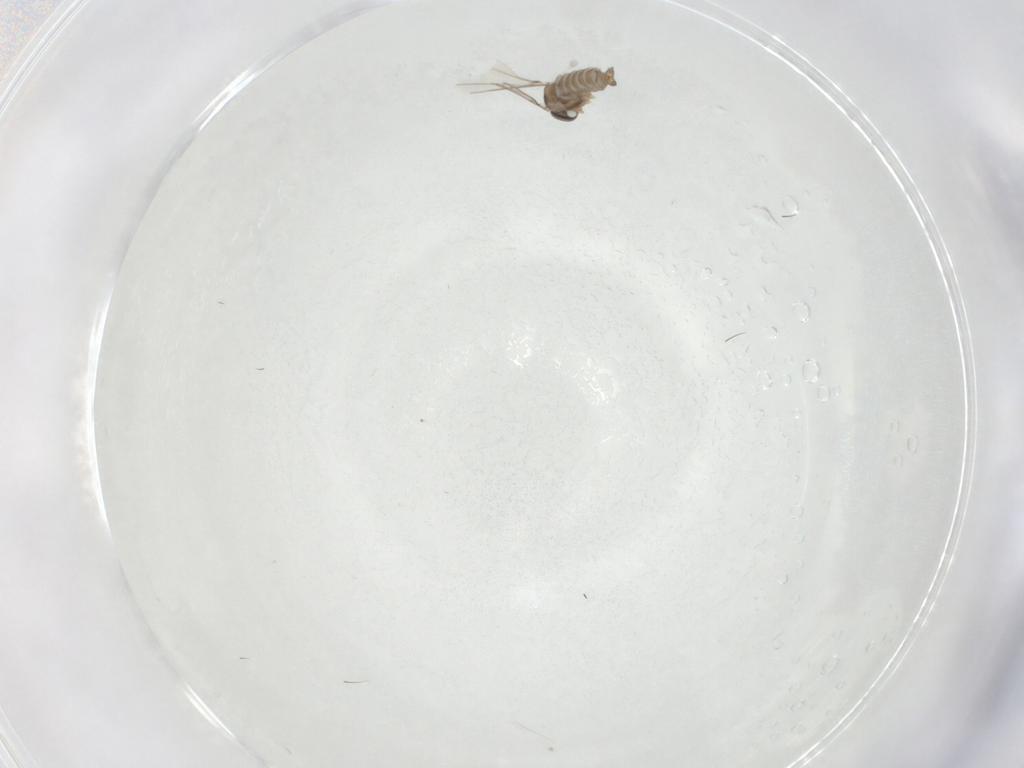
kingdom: Animalia
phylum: Arthropoda
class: Insecta
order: Diptera
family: Cecidomyiidae
